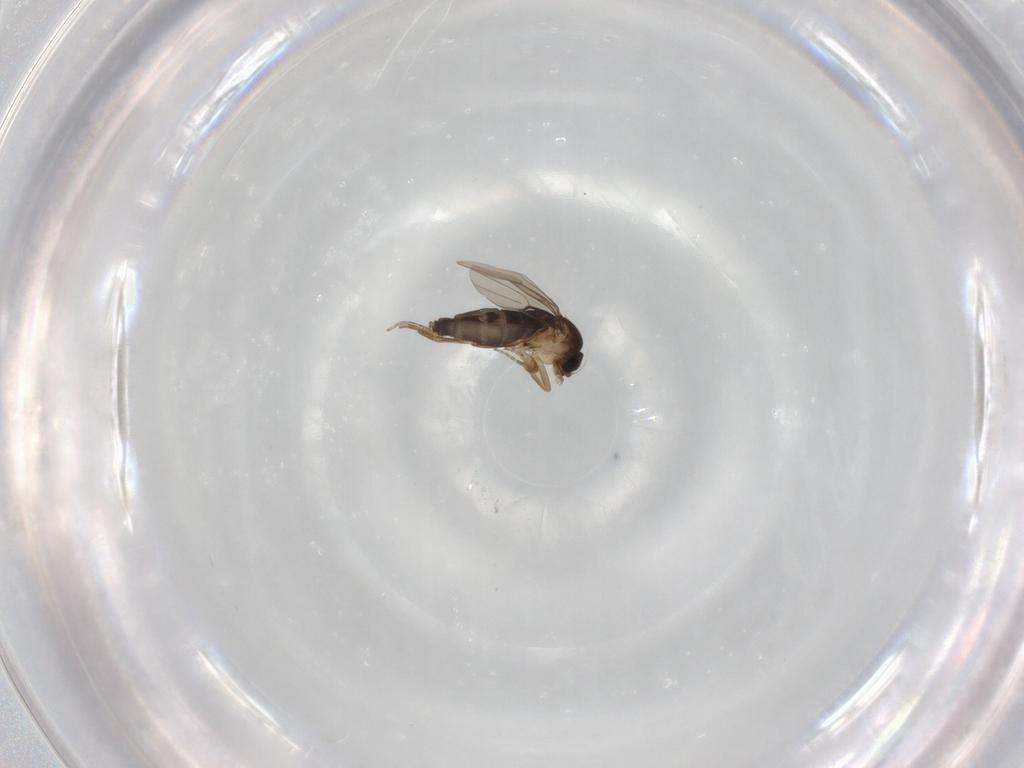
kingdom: Animalia
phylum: Arthropoda
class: Insecta
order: Diptera
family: Phoridae
